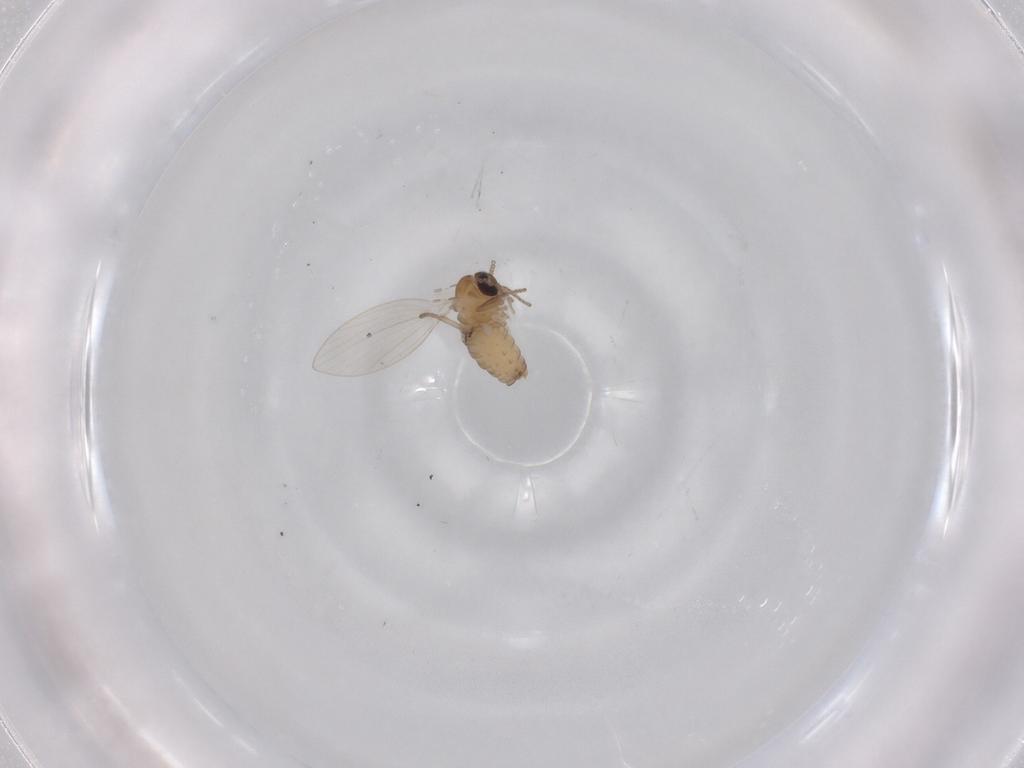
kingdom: Animalia
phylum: Arthropoda
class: Insecta
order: Diptera
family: Psychodidae
